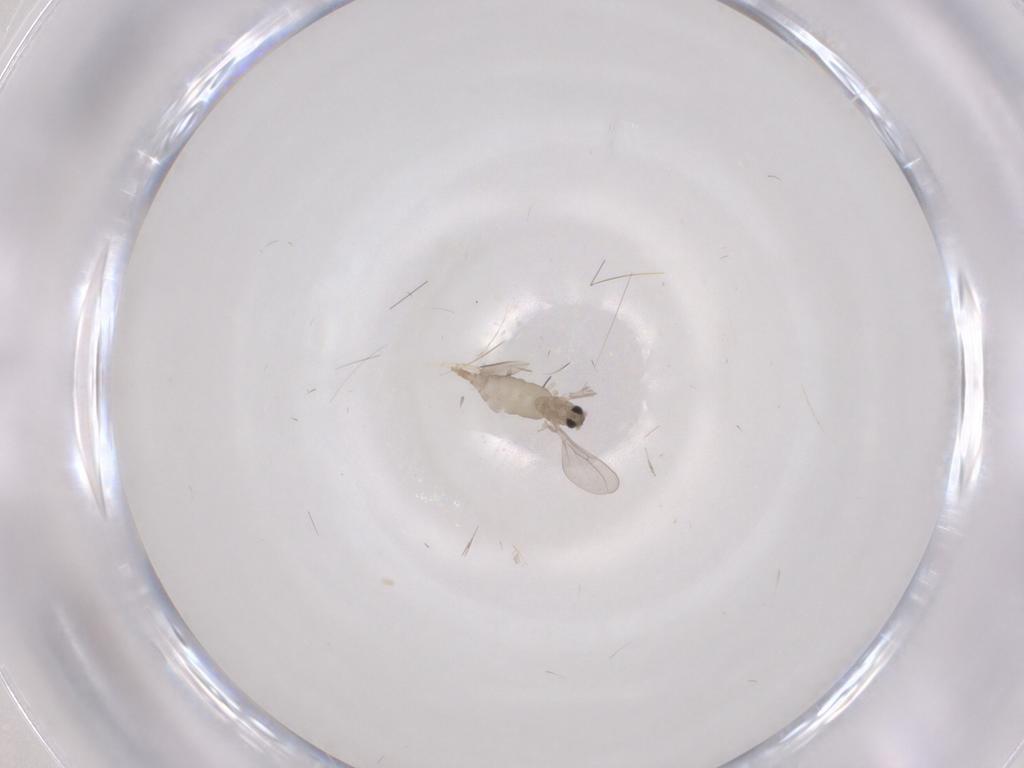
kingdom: Animalia
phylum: Arthropoda
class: Insecta
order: Diptera
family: Cecidomyiidae
